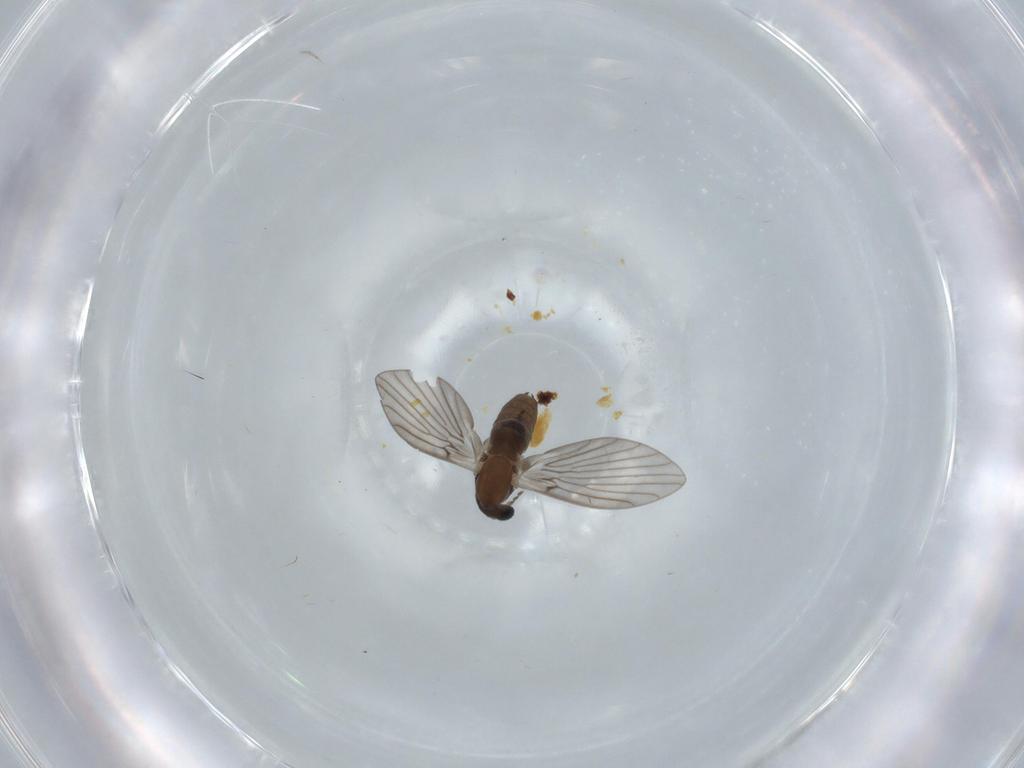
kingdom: Animalia
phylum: Arthropoda
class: Insecta
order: Diptera
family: Psychodidae
